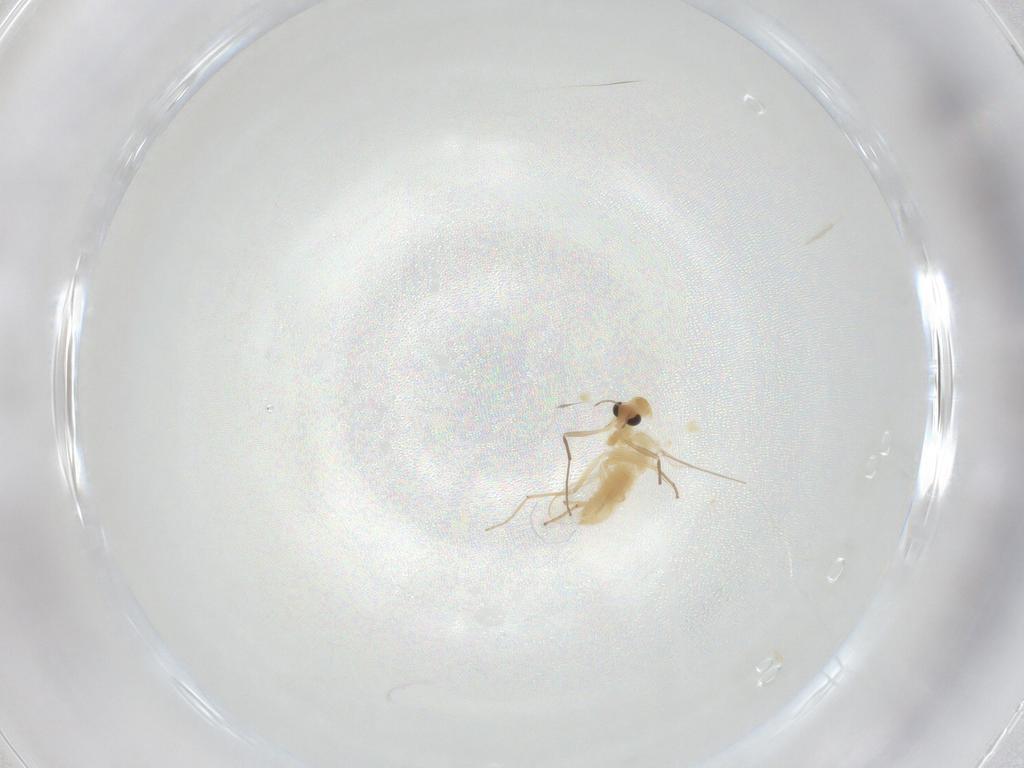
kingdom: Animalia
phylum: Arthropoda
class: Insecta
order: Diptera
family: Chironomidae
